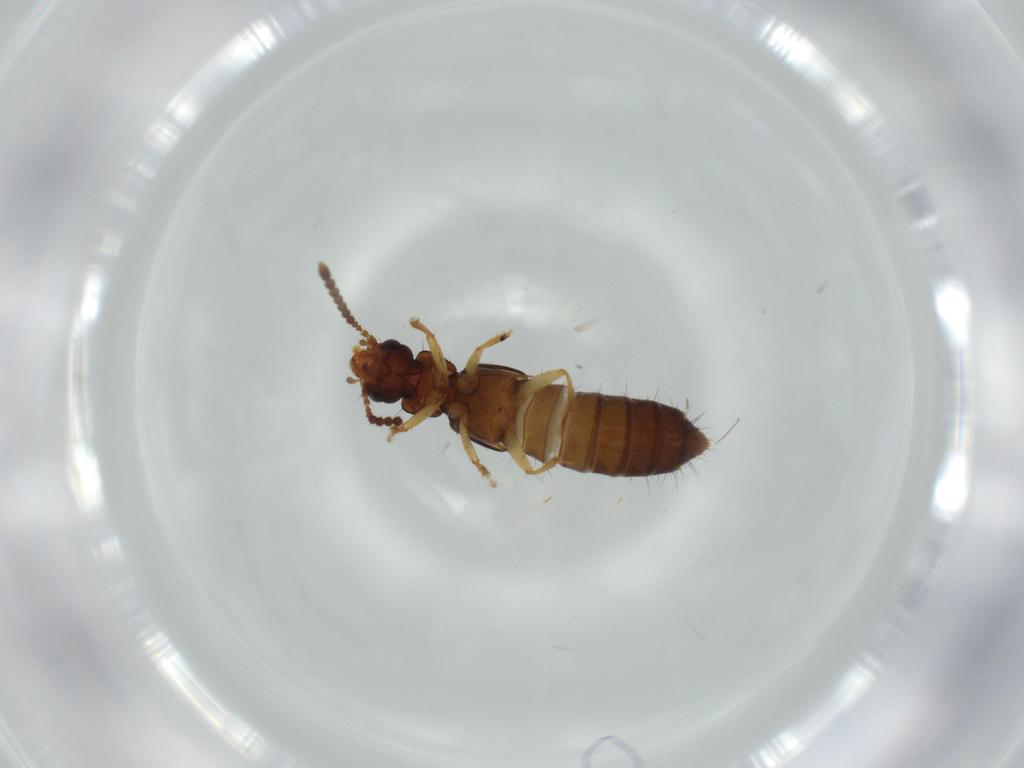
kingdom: Animalia
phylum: Arthropoda
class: Insecta
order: Coleoptera
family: Staphylinidae
